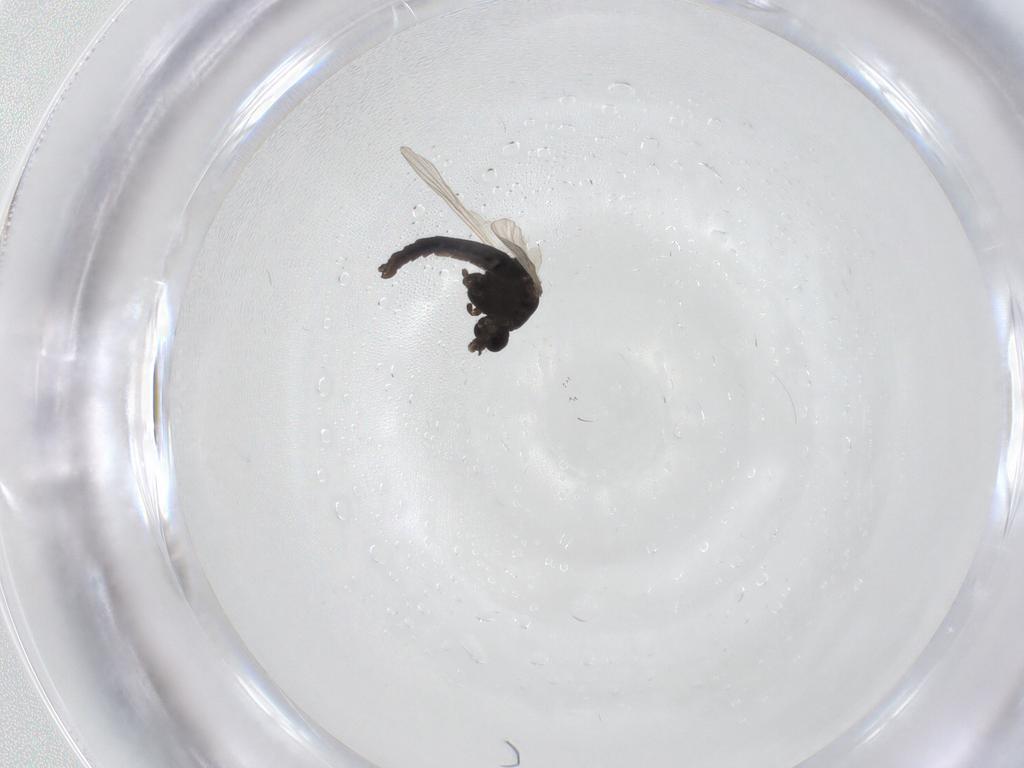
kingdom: Animalia
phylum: Arthropoda
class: Insecta
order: Diptera
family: Chironomidae
